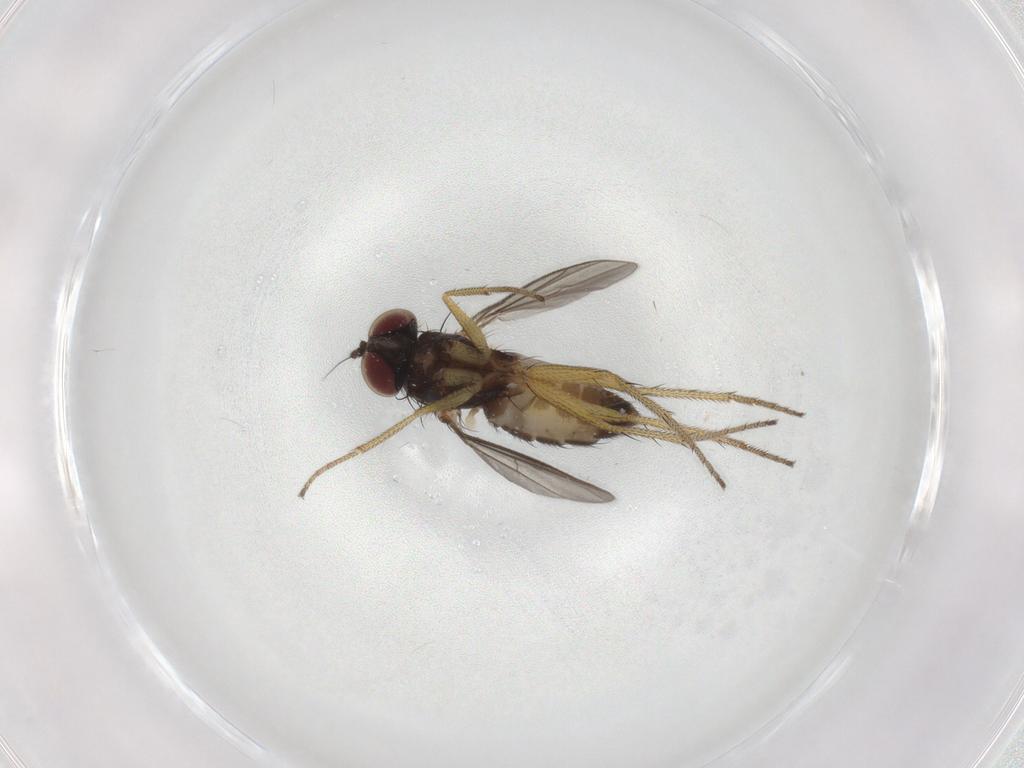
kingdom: Animalia
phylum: Arthropoda
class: Insecta
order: Diptera
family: Dolichopodidae
